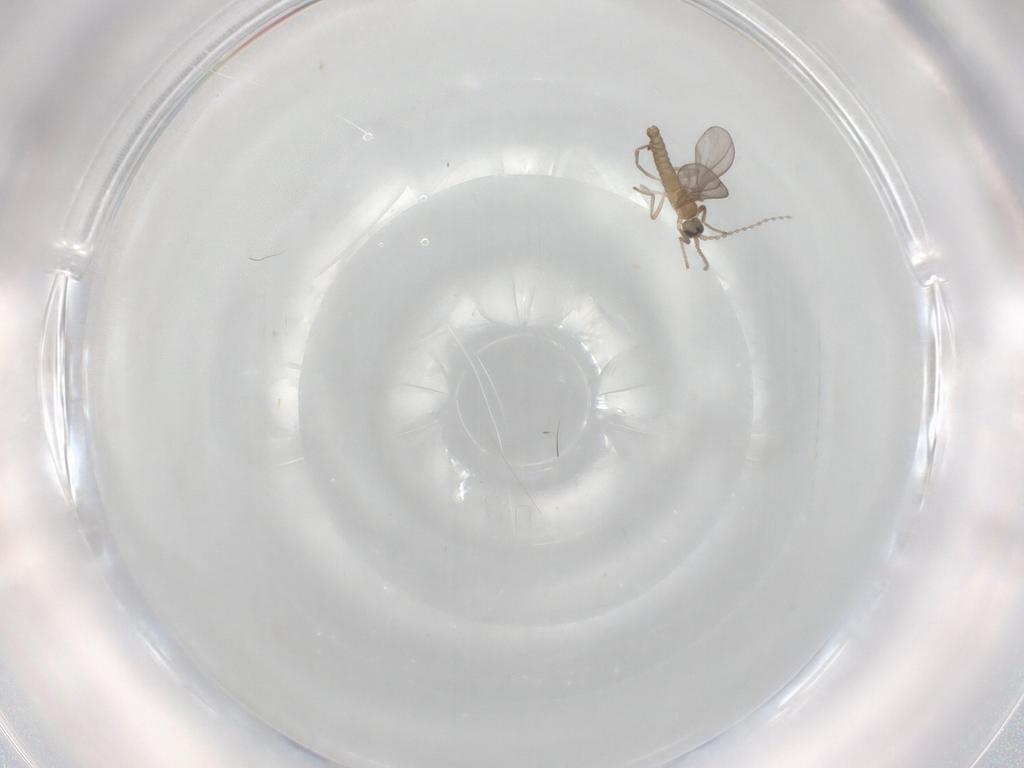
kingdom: Animalia
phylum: Arthropoda
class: Insecta
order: Diptera
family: Cecidomyiidae
